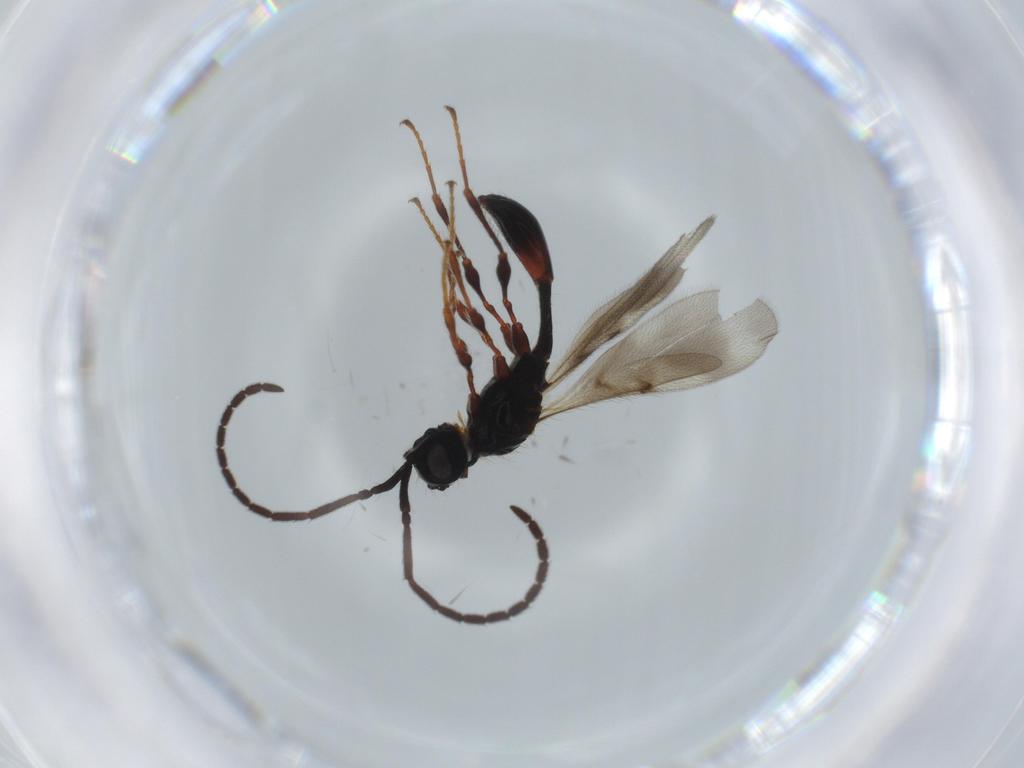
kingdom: Animalia
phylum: Arthropoda
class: Insecta
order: Hymenoptera
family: Diapriidae
